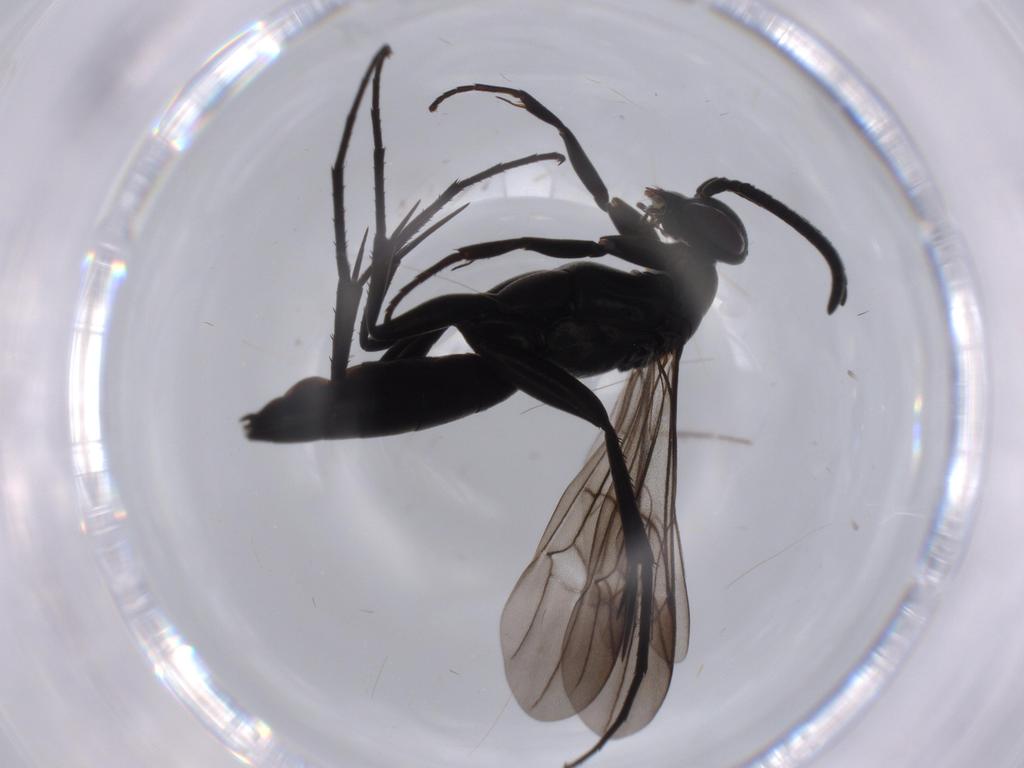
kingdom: Animalia
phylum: Arthropoda
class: Insecta
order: Hymenoptera
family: Pompilidae
